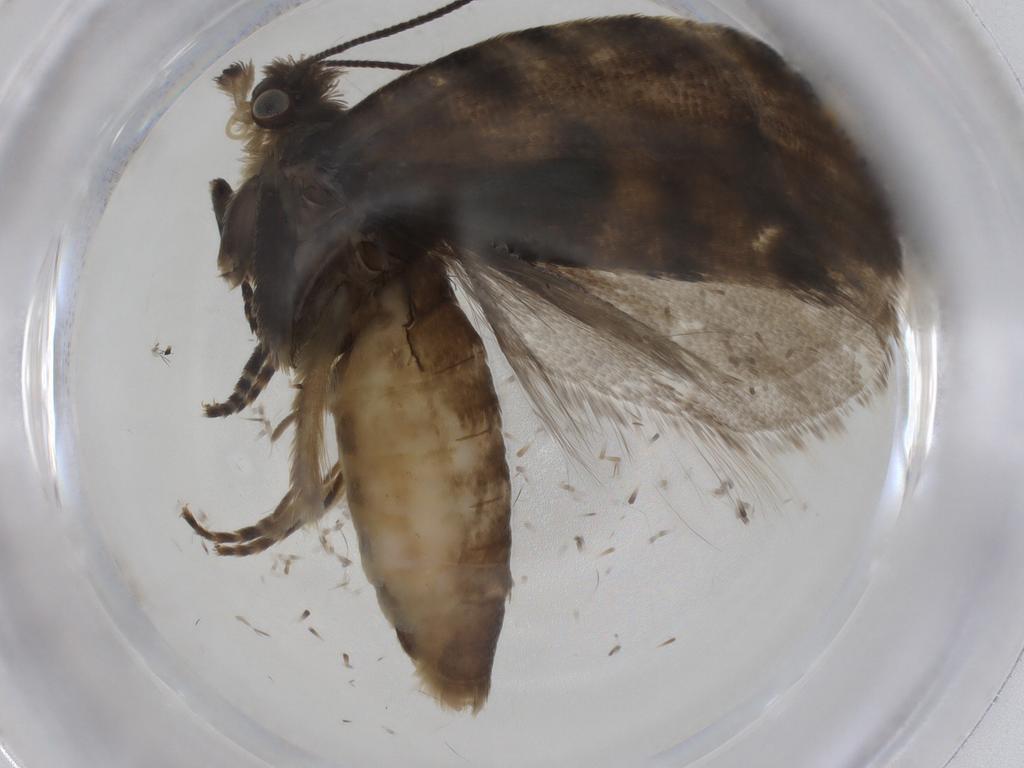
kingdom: Animalia
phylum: Arthropoda
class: Insecta
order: Lepidoptera
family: Tortricidae
